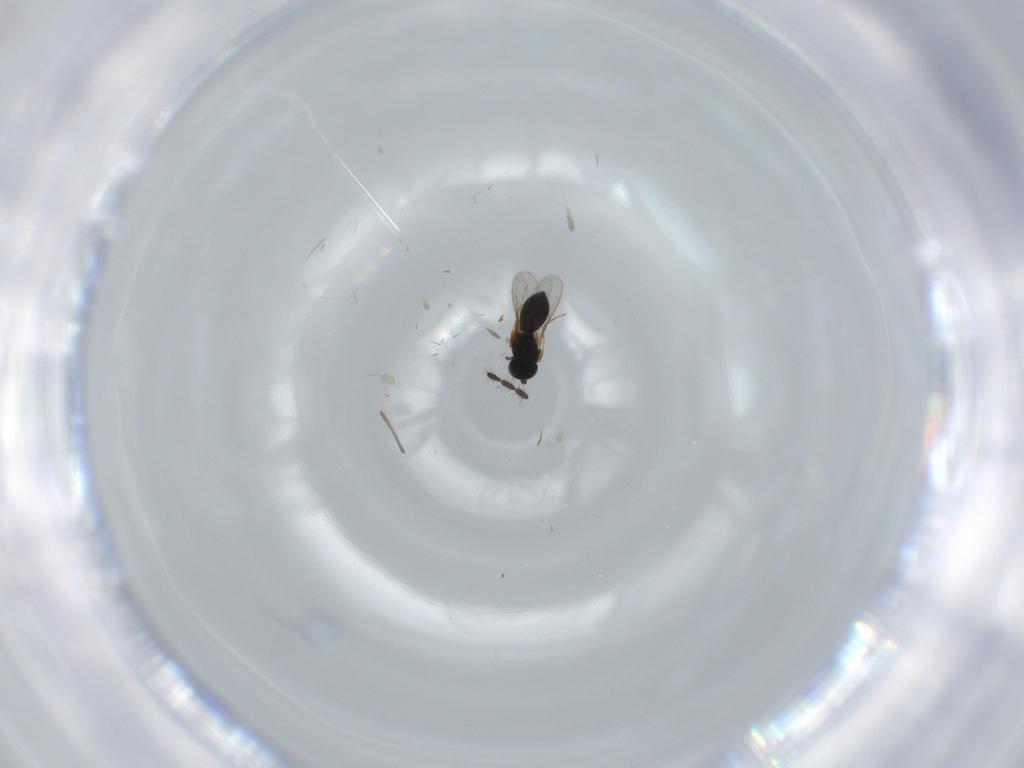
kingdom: Animalia
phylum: Arthropoda
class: Insecta
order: Hymenoptera
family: Scelionidae
